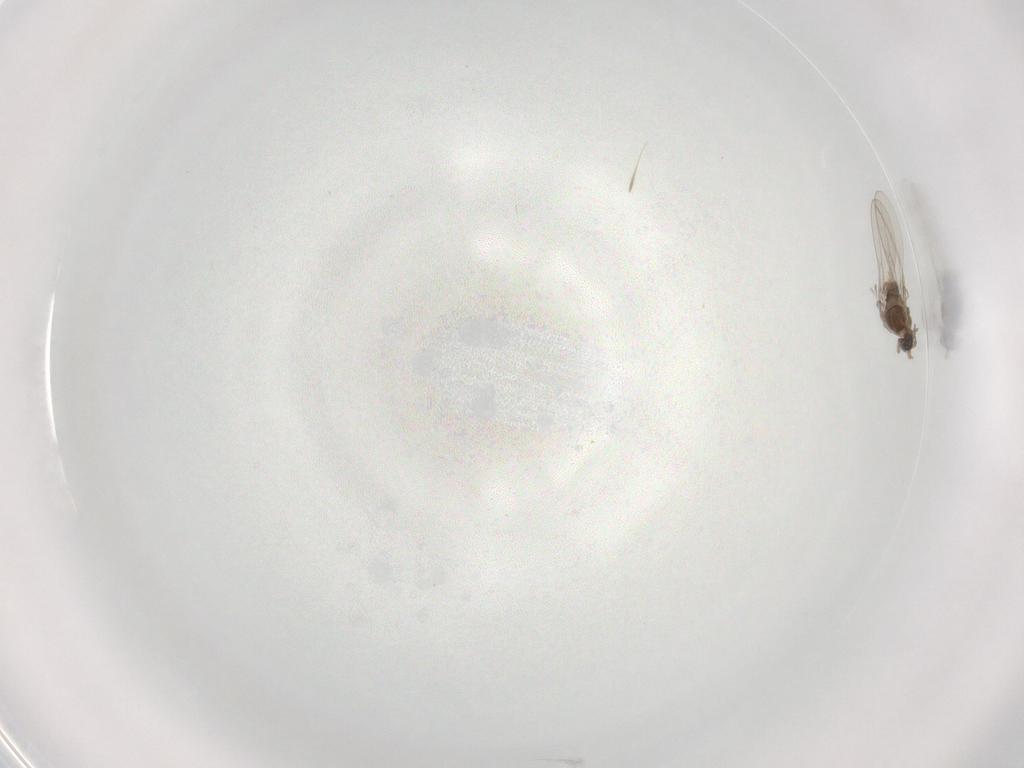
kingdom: Animalia
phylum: Arthropoda
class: Insecta
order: Diptera
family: Cecidomyiidae
